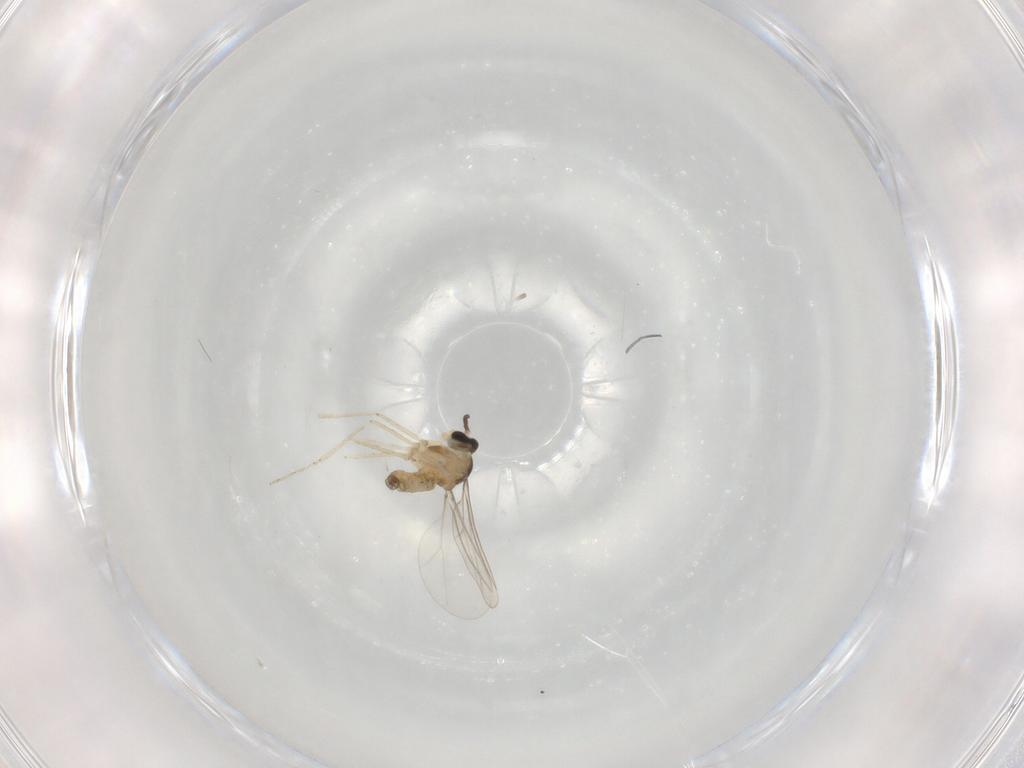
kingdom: Animalia
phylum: Arthropoda
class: Insecta
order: Diptera
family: Cecidomyiidae
